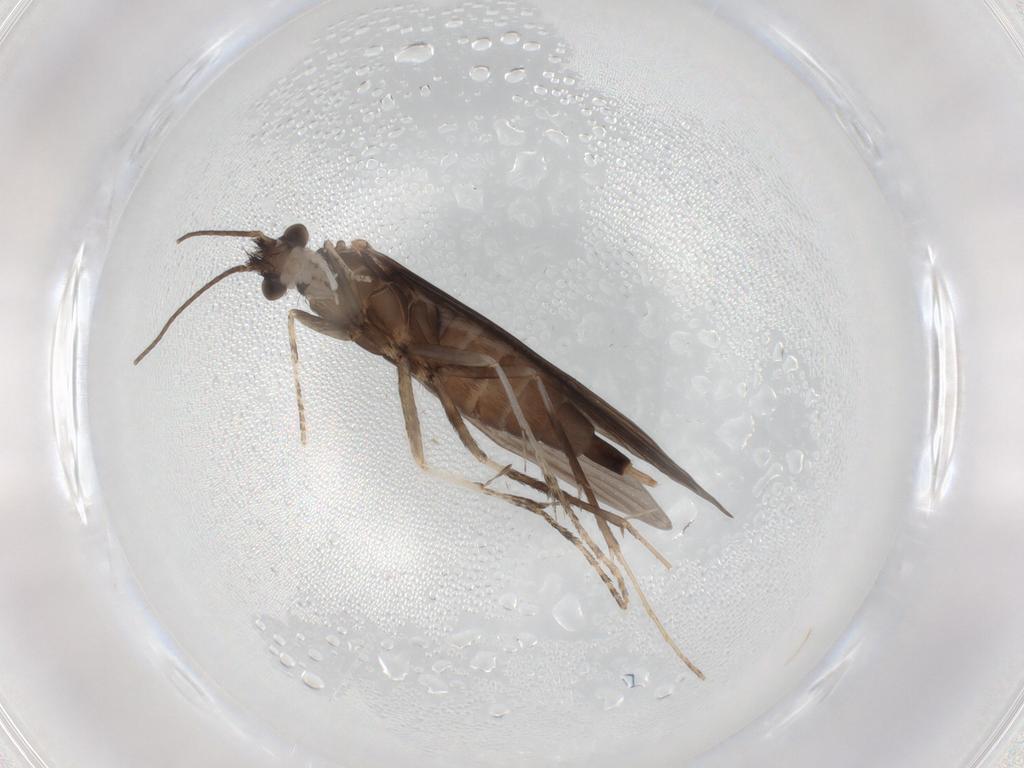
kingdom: Animalia
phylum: Arthropoda
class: Insecta
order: Trichoptera
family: Xiphocentronidae
